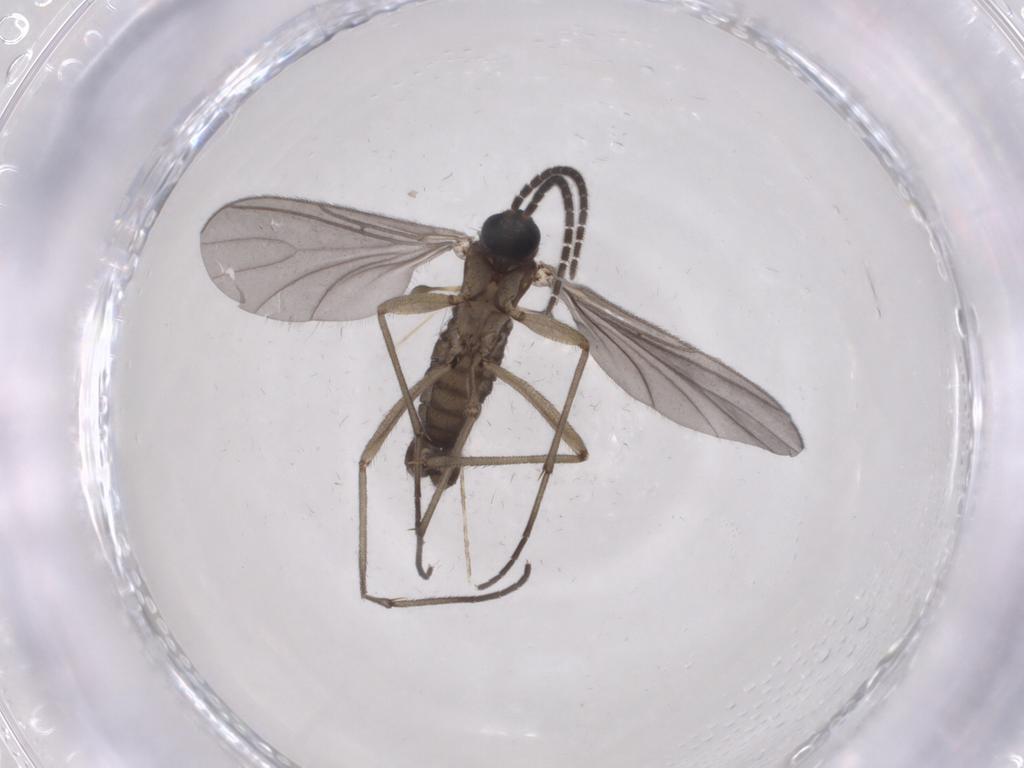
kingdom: Animalia
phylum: Arthropoda
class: Insecta
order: Diptera
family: Sciaridae
